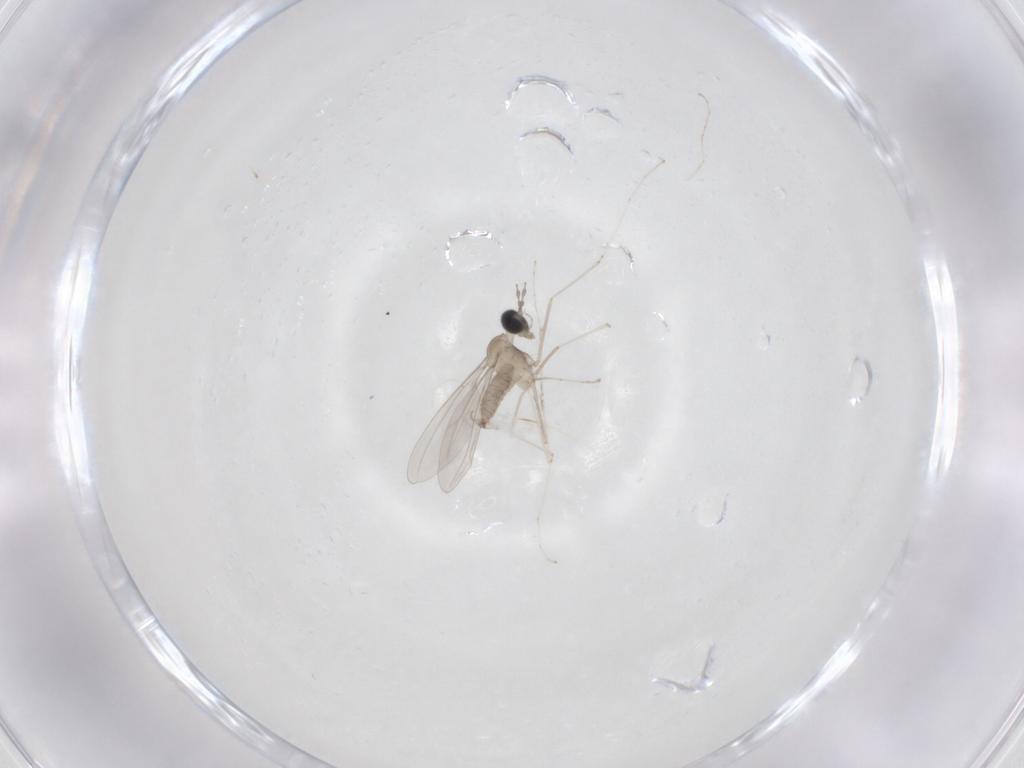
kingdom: Animalia
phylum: Arthropoda
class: Insecta
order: Diptera
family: Cecidomyiidae
